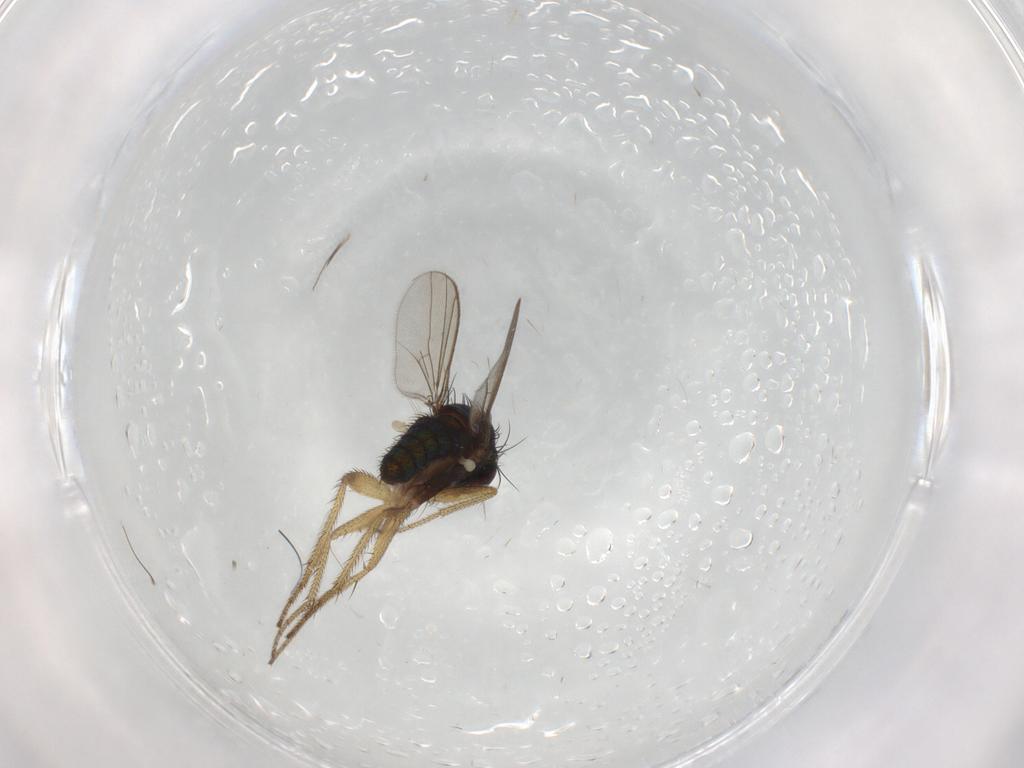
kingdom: Animalia
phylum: Arthropoda
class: Insecta
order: Diptera
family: Chironomidae
